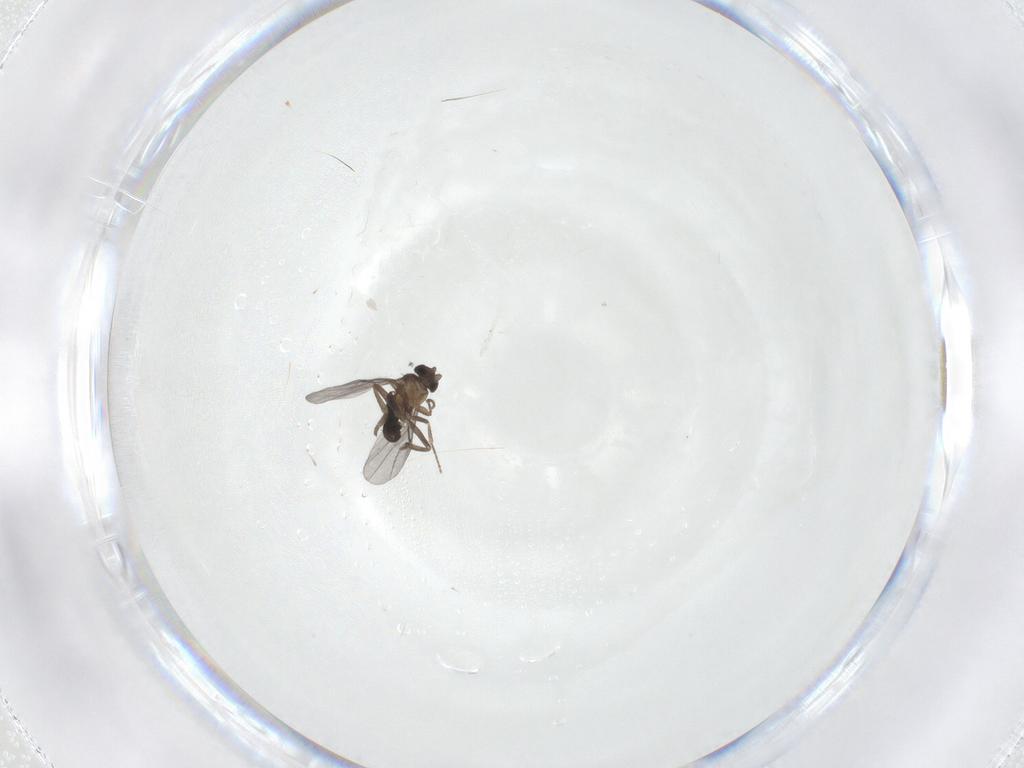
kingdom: Animalia
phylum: Arthropoda
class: Insecta
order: Diptera
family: Phoridae
